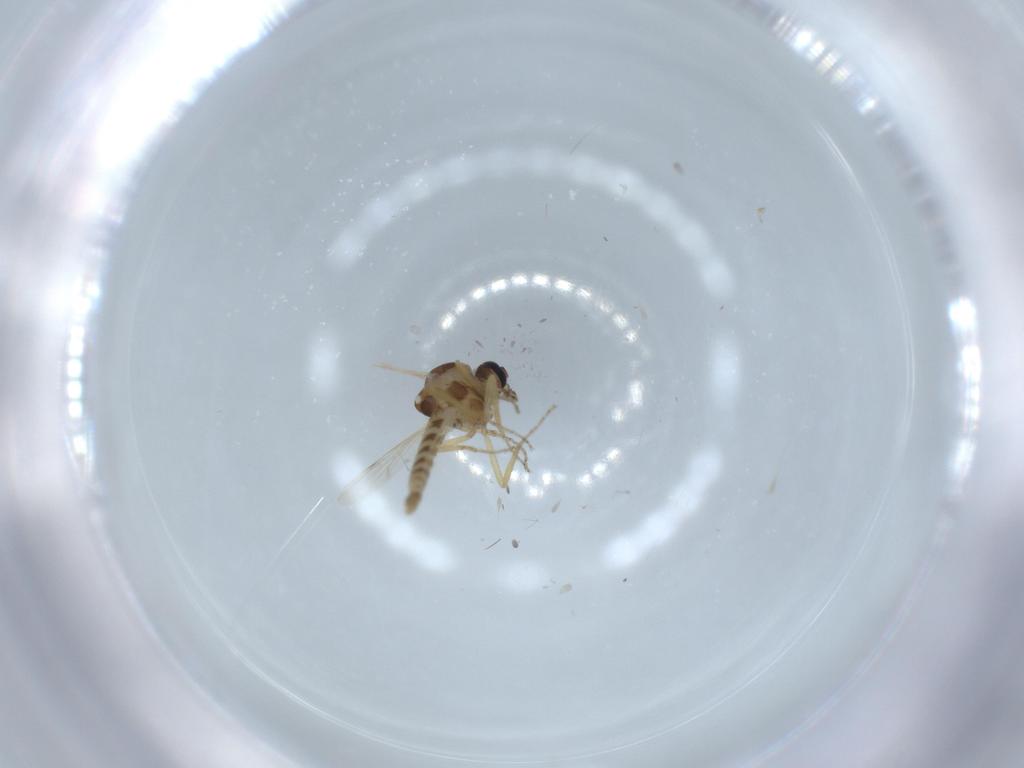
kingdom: Animalia
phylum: Arthropoda
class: Insecta
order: Diptera
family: Ceratopogonidae
